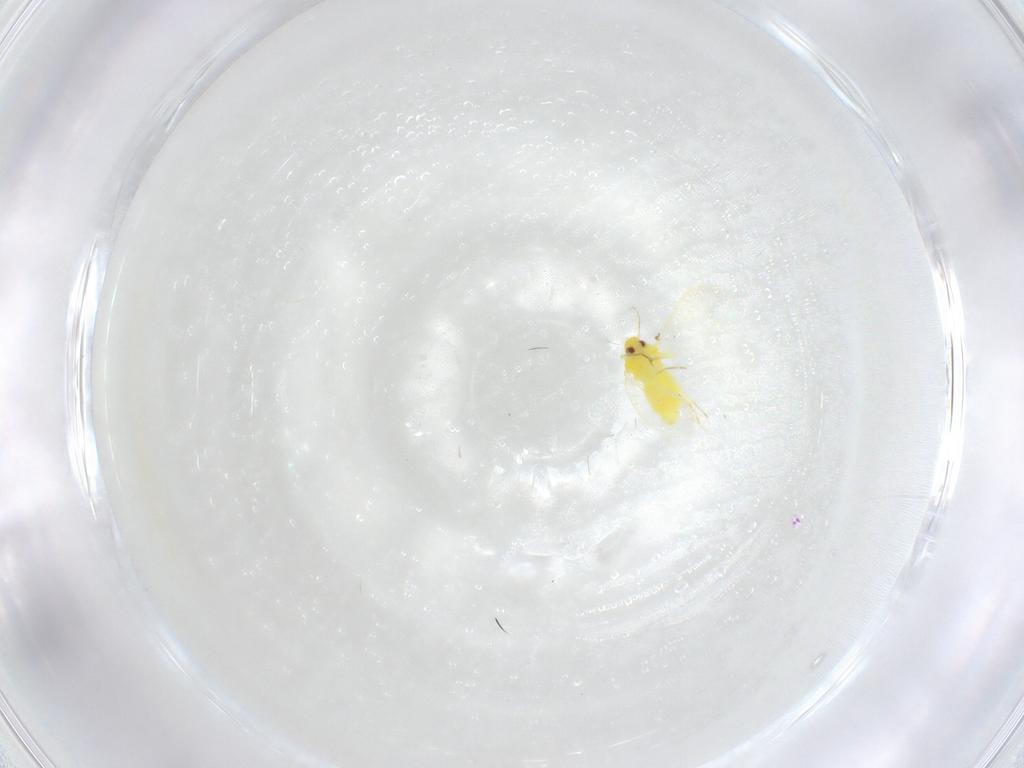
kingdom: Animalia
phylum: Arthropoda
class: Insecta
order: Hemiptera
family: Aleyrodidae
